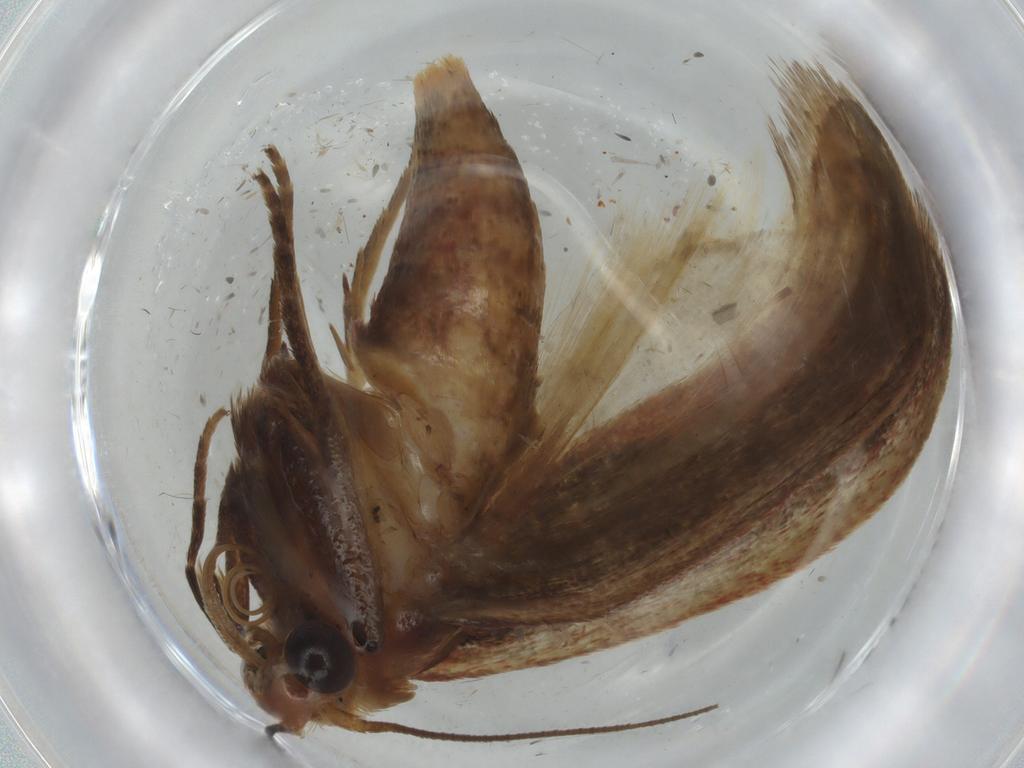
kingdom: Animalia
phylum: Arthropoda
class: Insecta
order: Lepidoptera
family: Pyralidae
